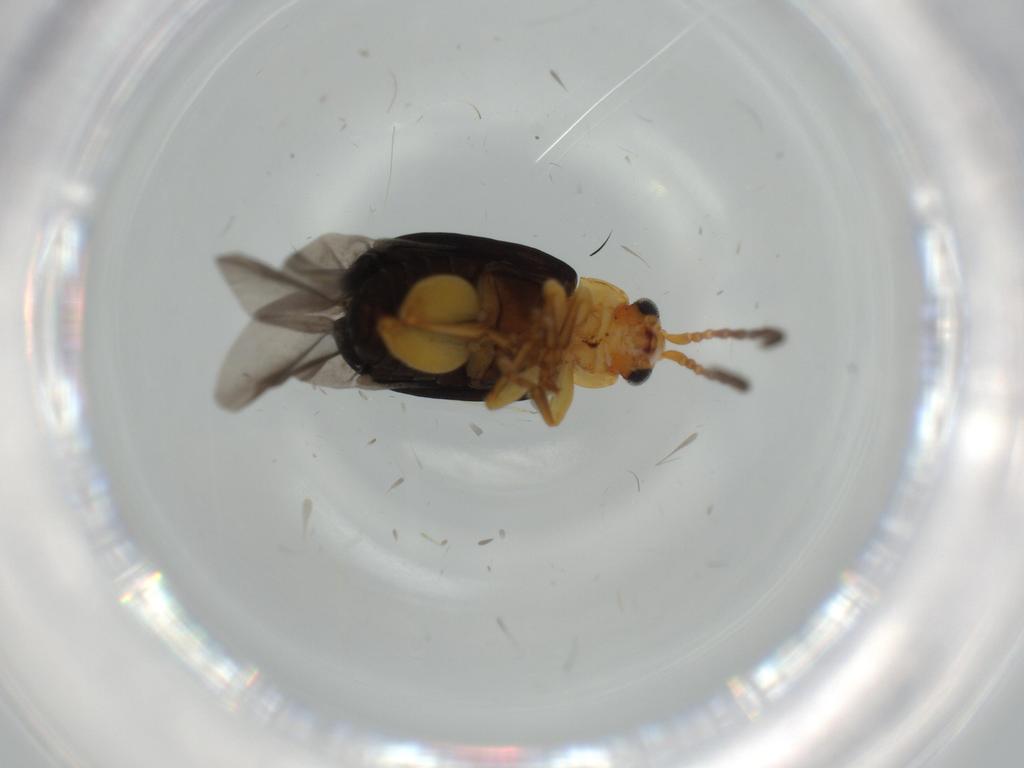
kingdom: Animalia
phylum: Arthropoda
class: Insecta
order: Coleoptera
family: Chrysomelidae
